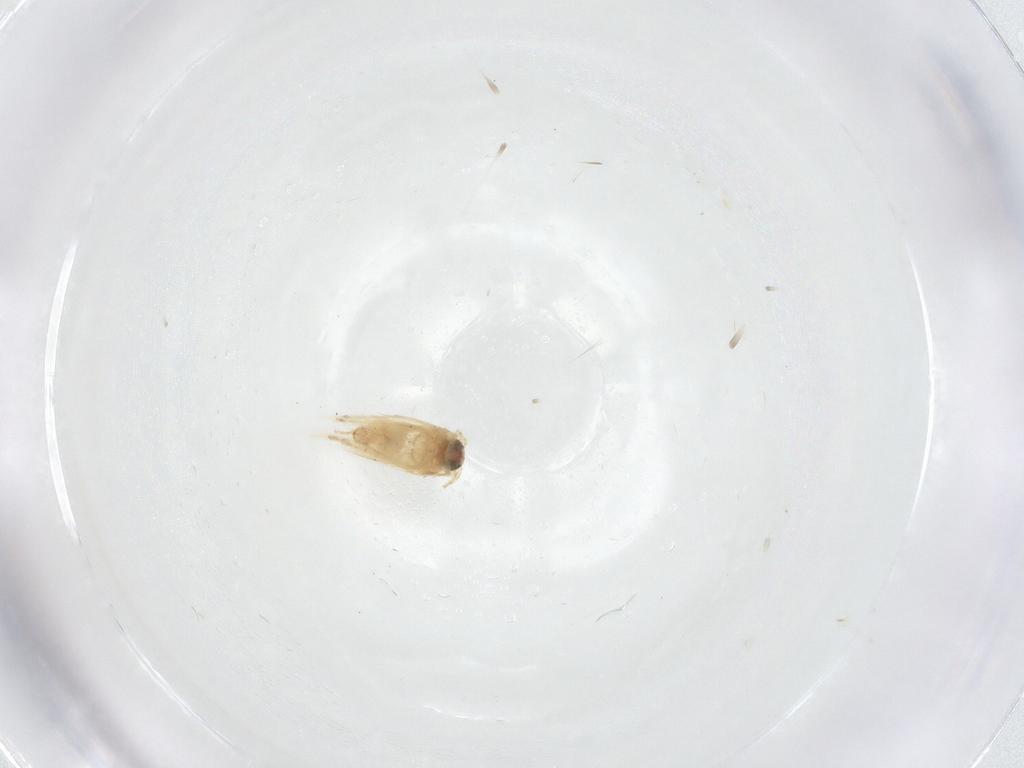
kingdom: Animalia
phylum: Arthropoda
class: Insecta
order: Lepidoptera
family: Crambidae
